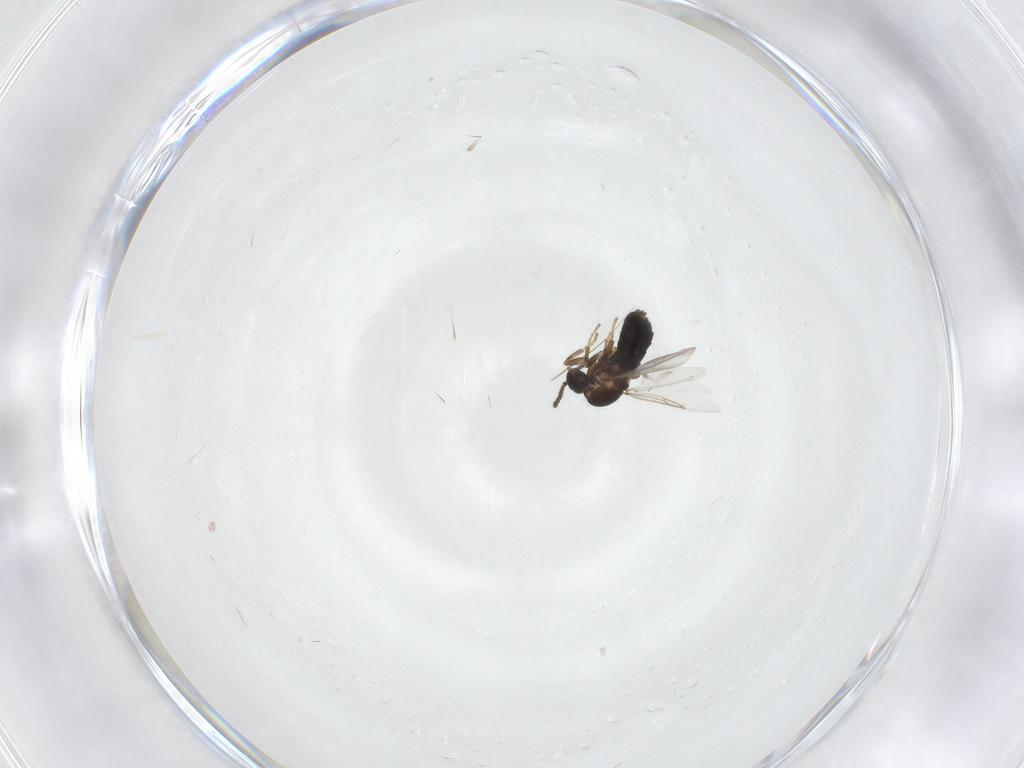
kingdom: Animalia
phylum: Arthropoda
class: Insecta
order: Diptera
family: Scatopsidae
